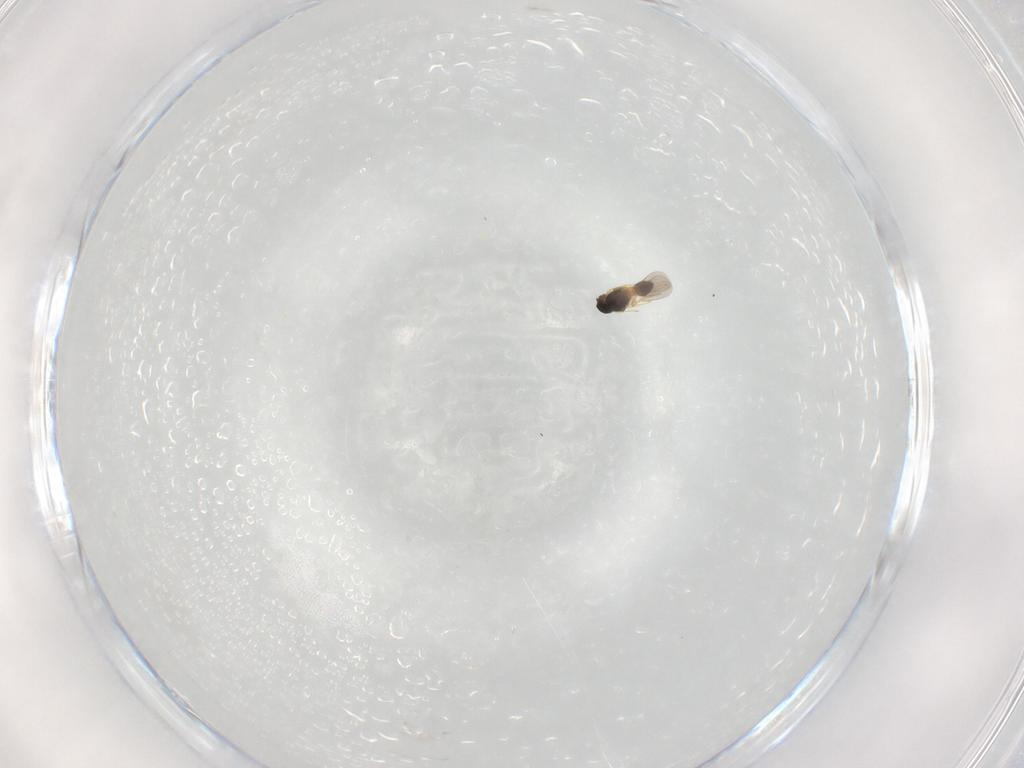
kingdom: Animalia
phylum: Arthropoda
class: Insecta
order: Hymenoptera
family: Platygastridae
